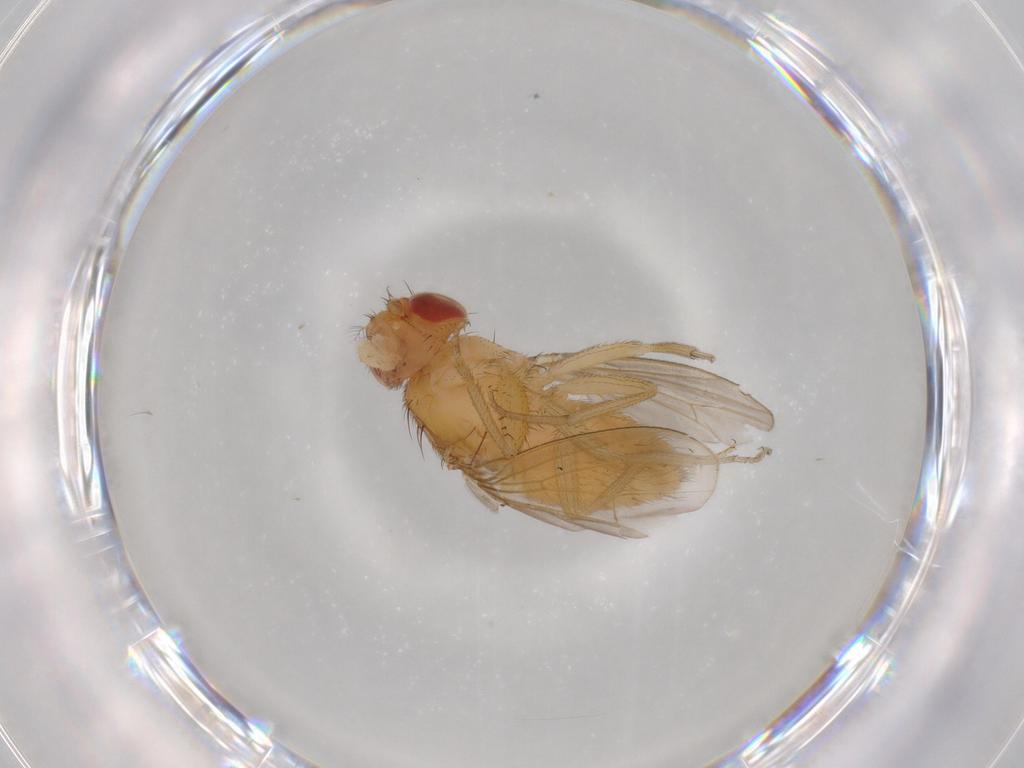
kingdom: Animalia
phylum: Arthropoda
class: Insecta
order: Diptera
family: Drosophilidae
